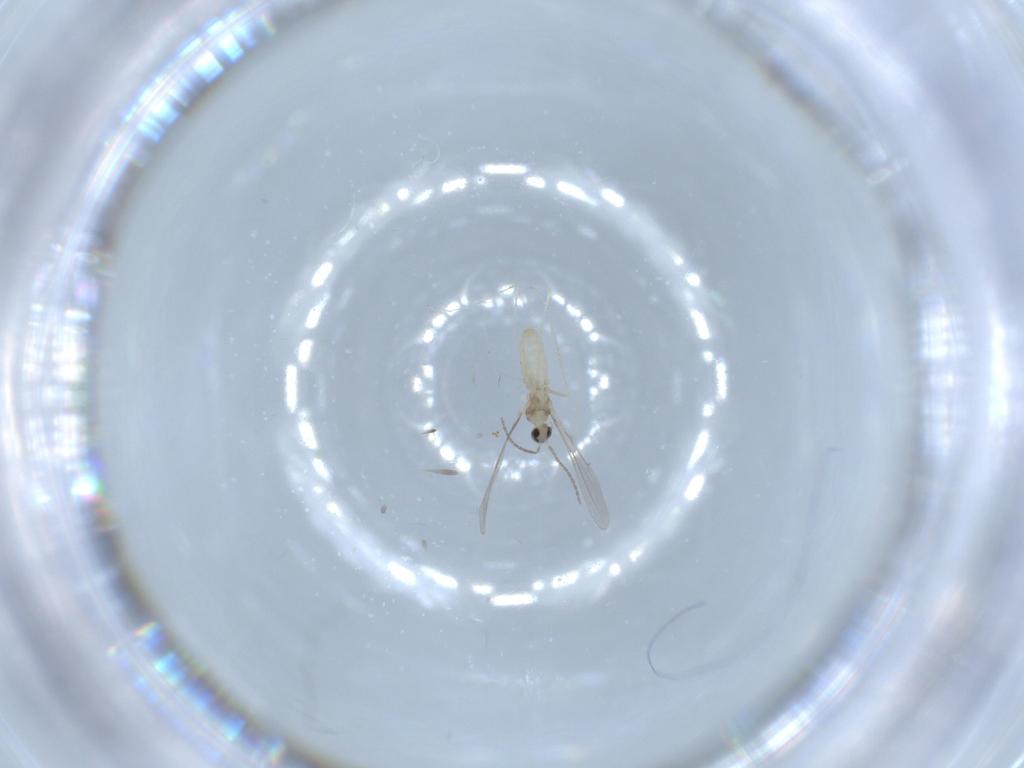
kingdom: Animalia
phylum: Arthropoda
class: Insecta
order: Diptera
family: Cecidomyiidae
